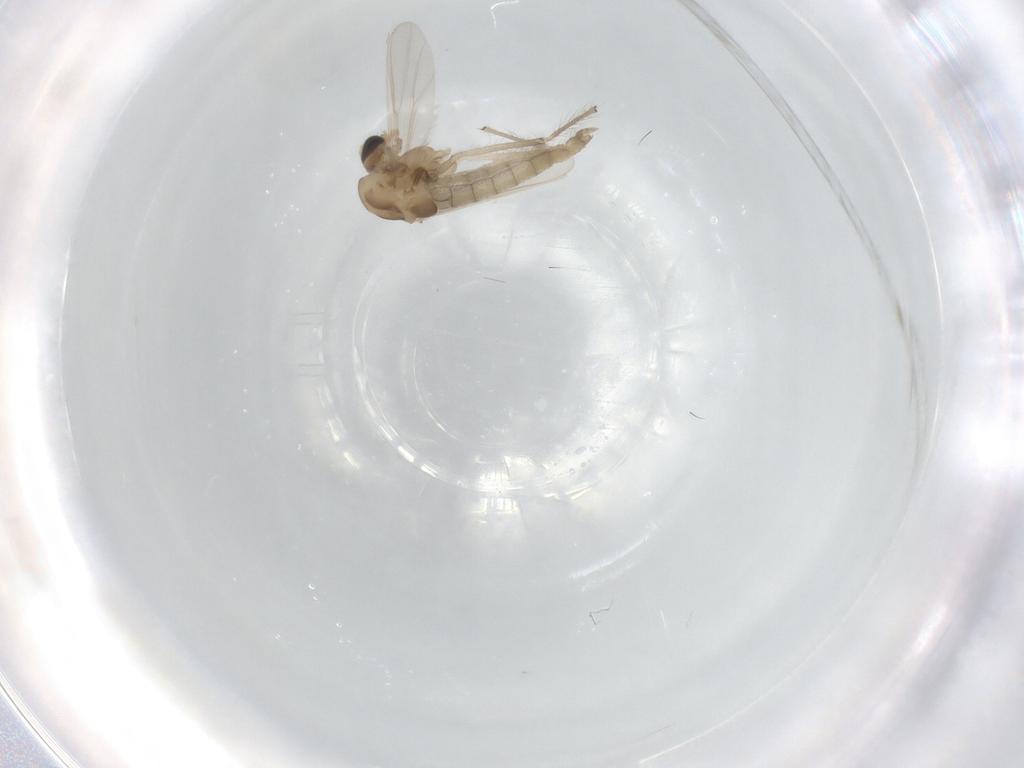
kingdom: Animalia
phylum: Arthropoda
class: Insecta
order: Diptera
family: Chironomidae
